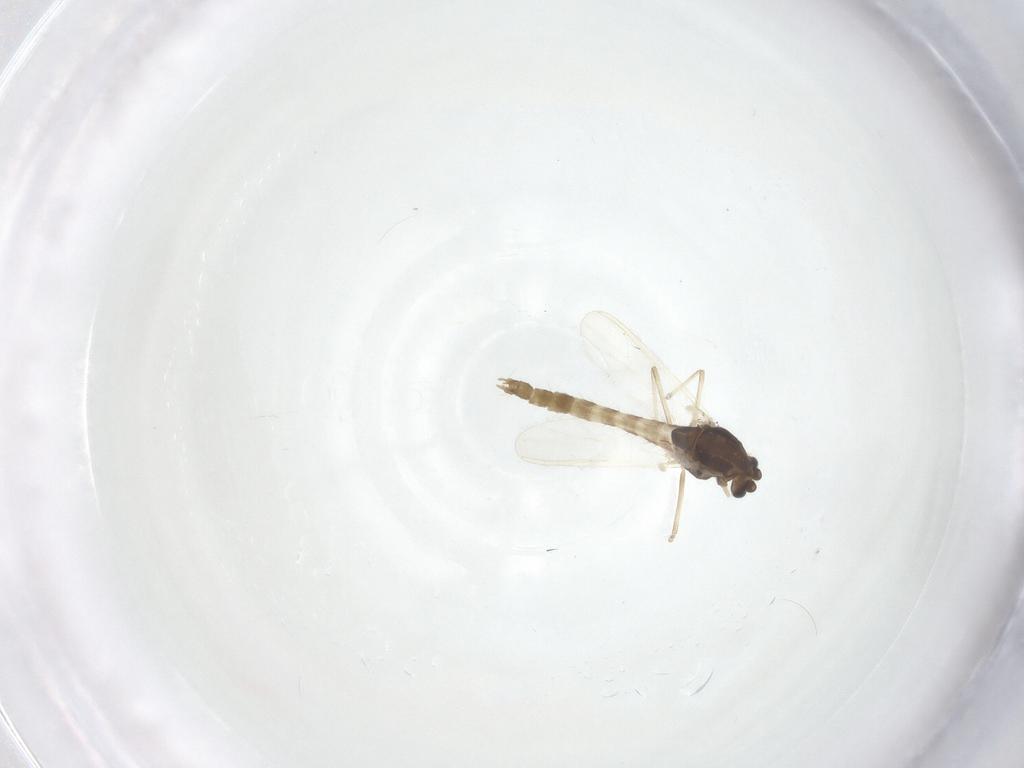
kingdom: Animalia
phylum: Arthropoda
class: Insecta
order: Diptera
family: Chironomidae
